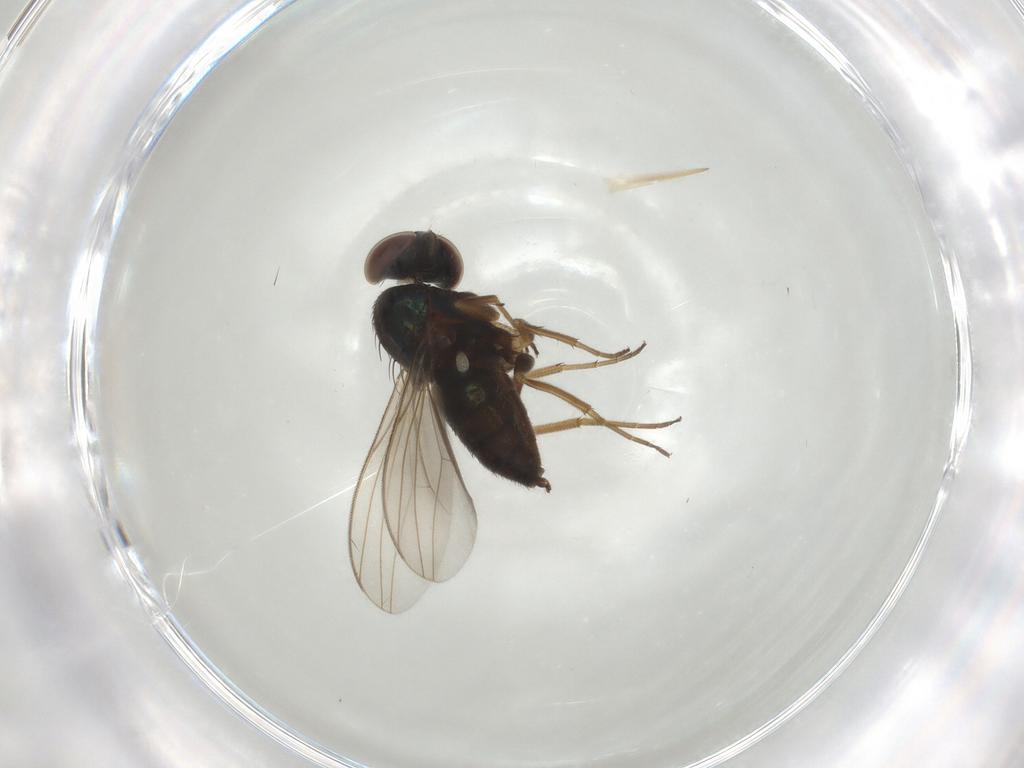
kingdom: Animalia
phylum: Arthropoda
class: Insecta
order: Diptera
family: Dolichopodidae
